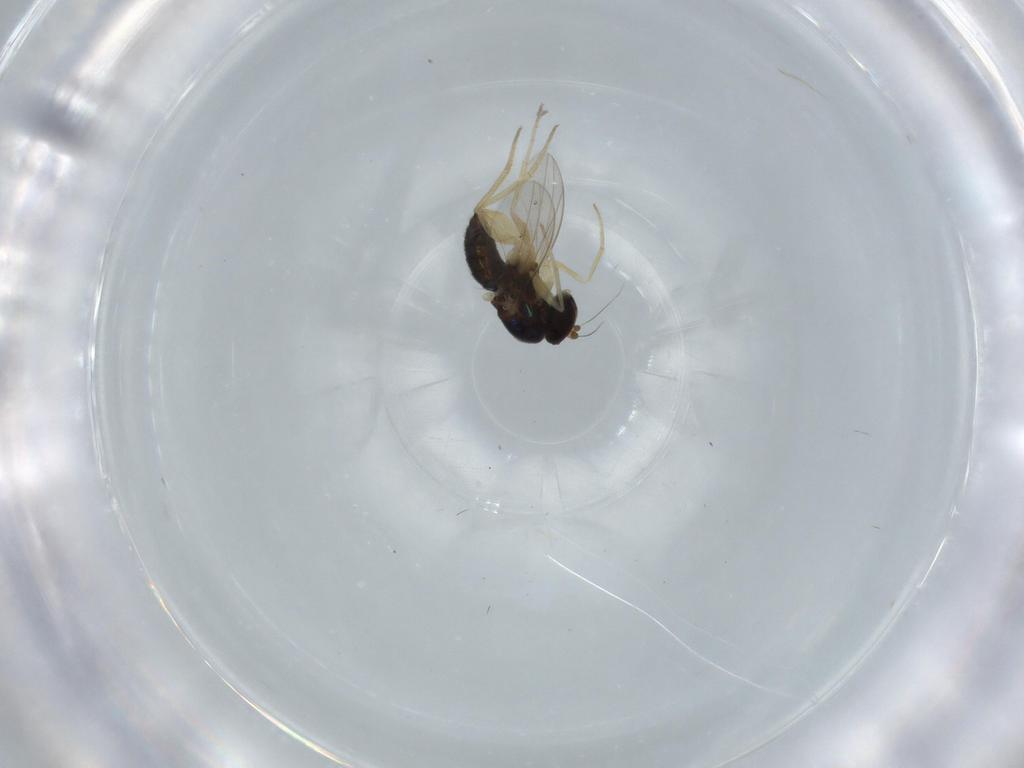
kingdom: Animalia
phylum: Arthropoda
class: Insecta
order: Diptera
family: Dolichopodidae
